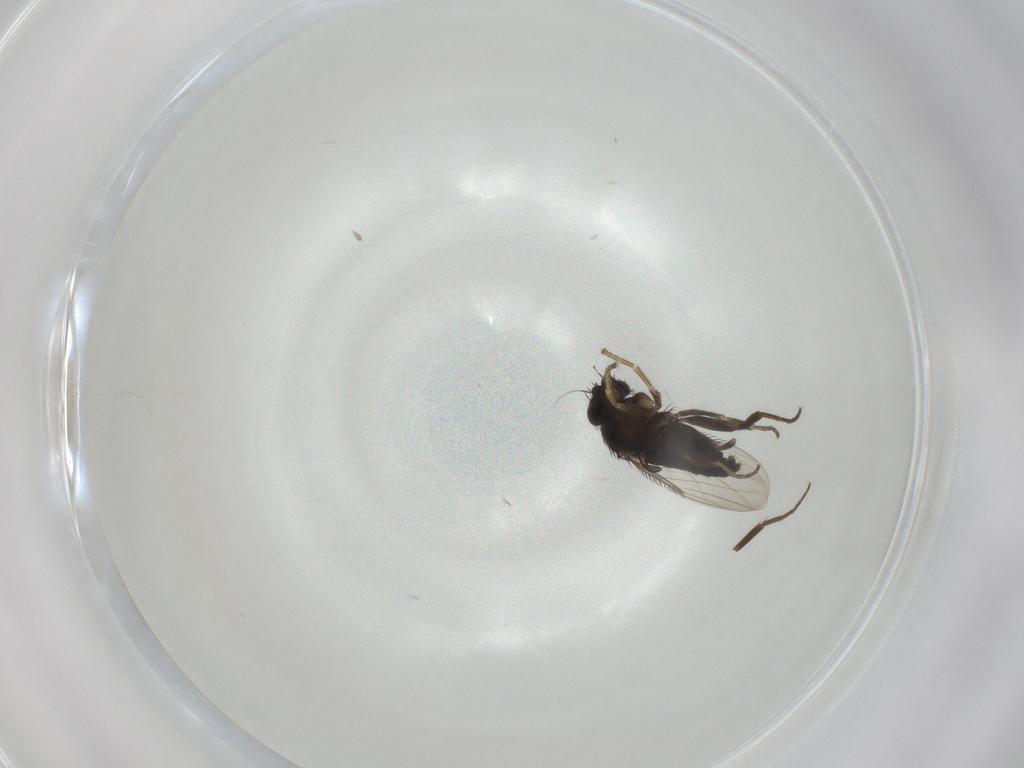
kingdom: Animalia
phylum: Arthropoda
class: Insecta
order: Diptera
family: Phoridae
